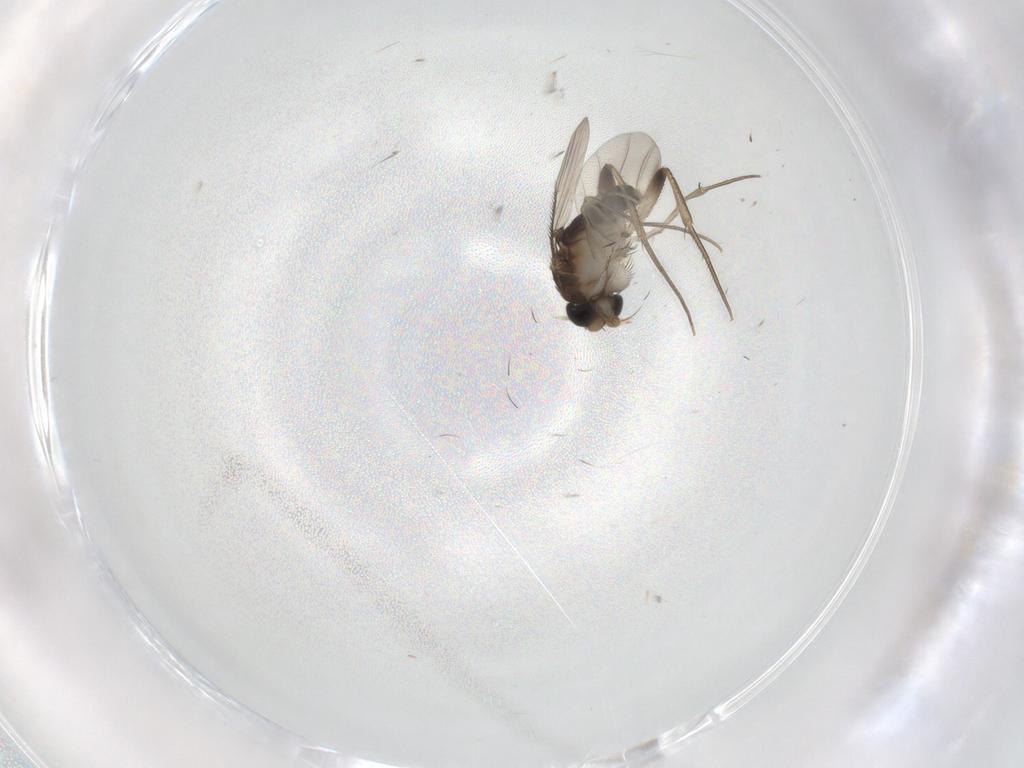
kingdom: Animalia
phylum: Arthropoda
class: Insecta
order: Diptera
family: Phoridae
